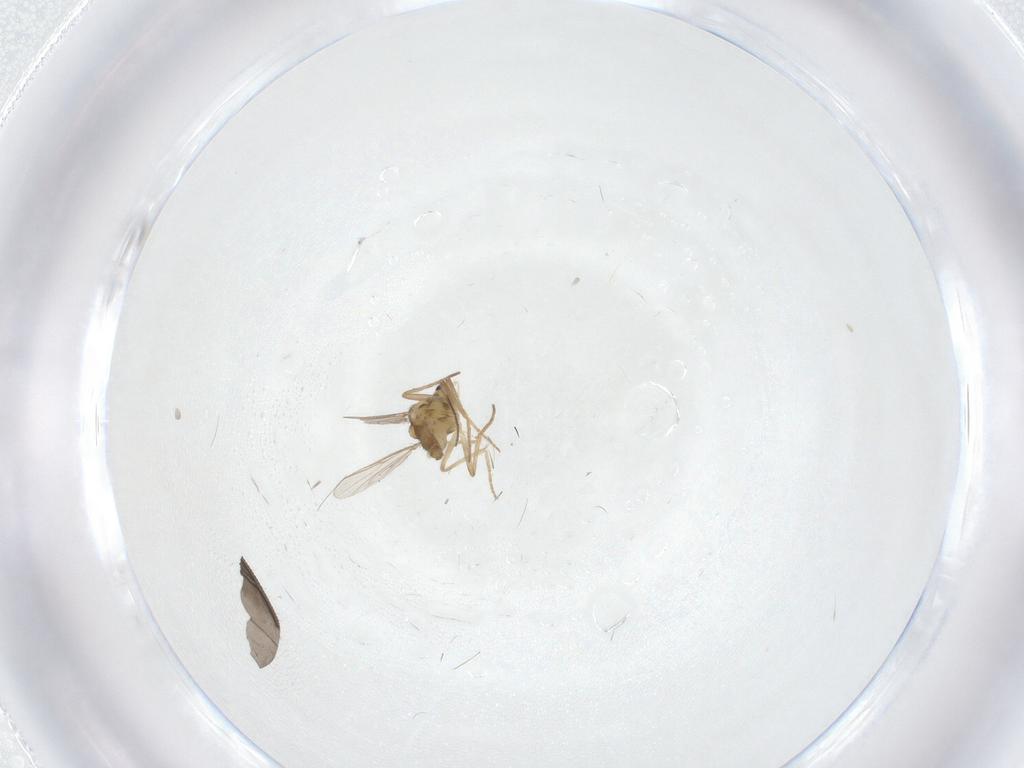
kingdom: Animalia
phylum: Arthropoda
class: Insecta
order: Diptera
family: Chironomidae
